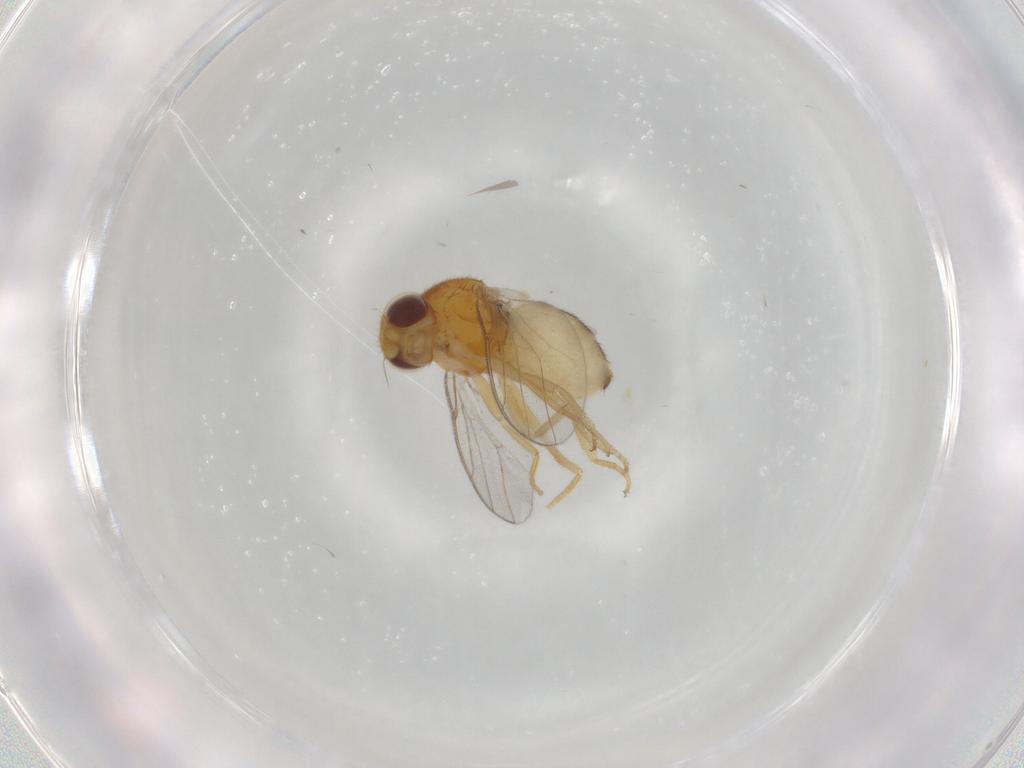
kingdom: Animalia
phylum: Arthropoda
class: Insecta
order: Diptera
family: Chloropidae
